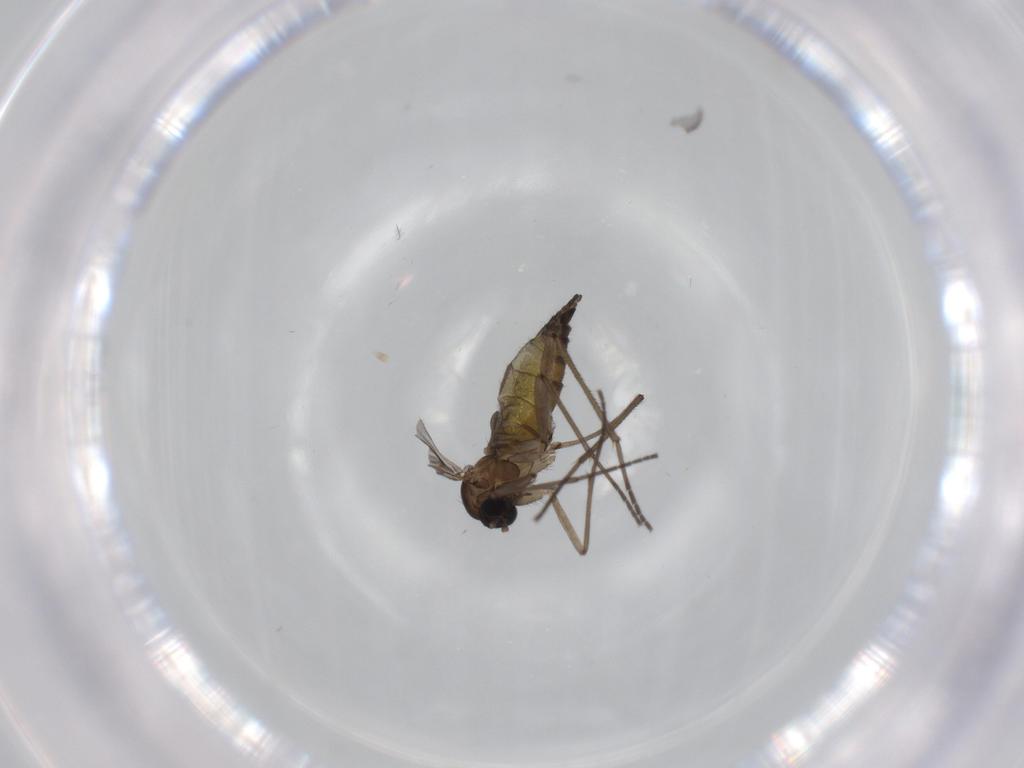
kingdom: Animalia
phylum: Arthropoda
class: Insecta
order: Diptera
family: Sciaridae
